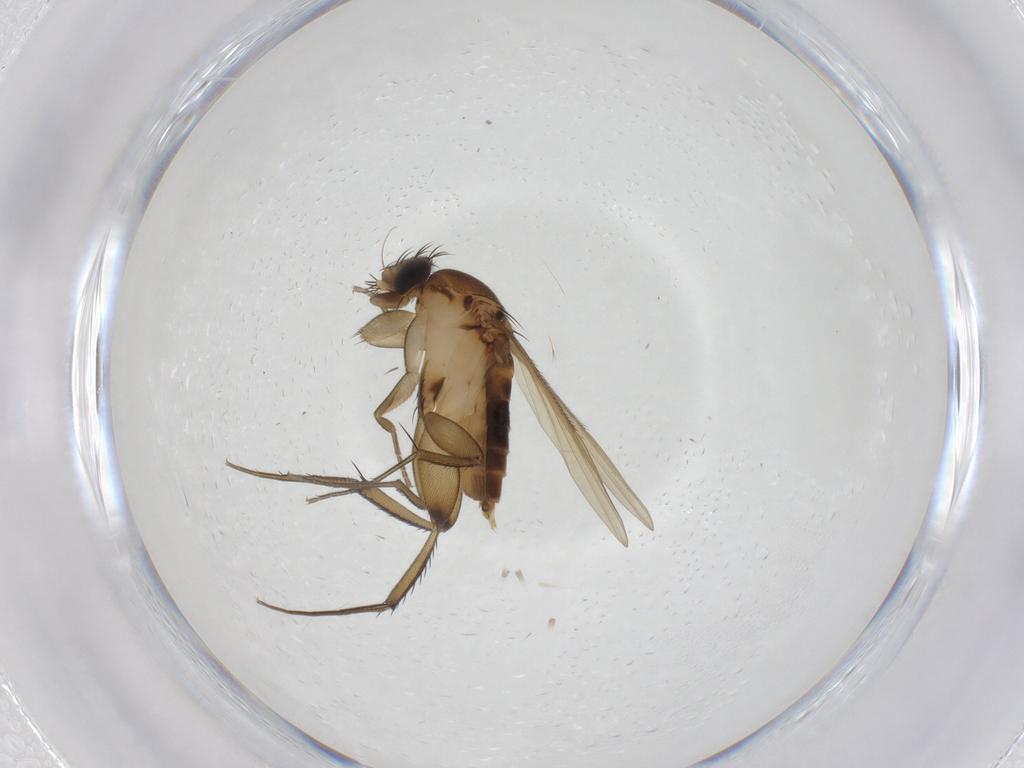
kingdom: Animalia
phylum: Arthropoda
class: Insecta
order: Diptera
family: Phoridae
